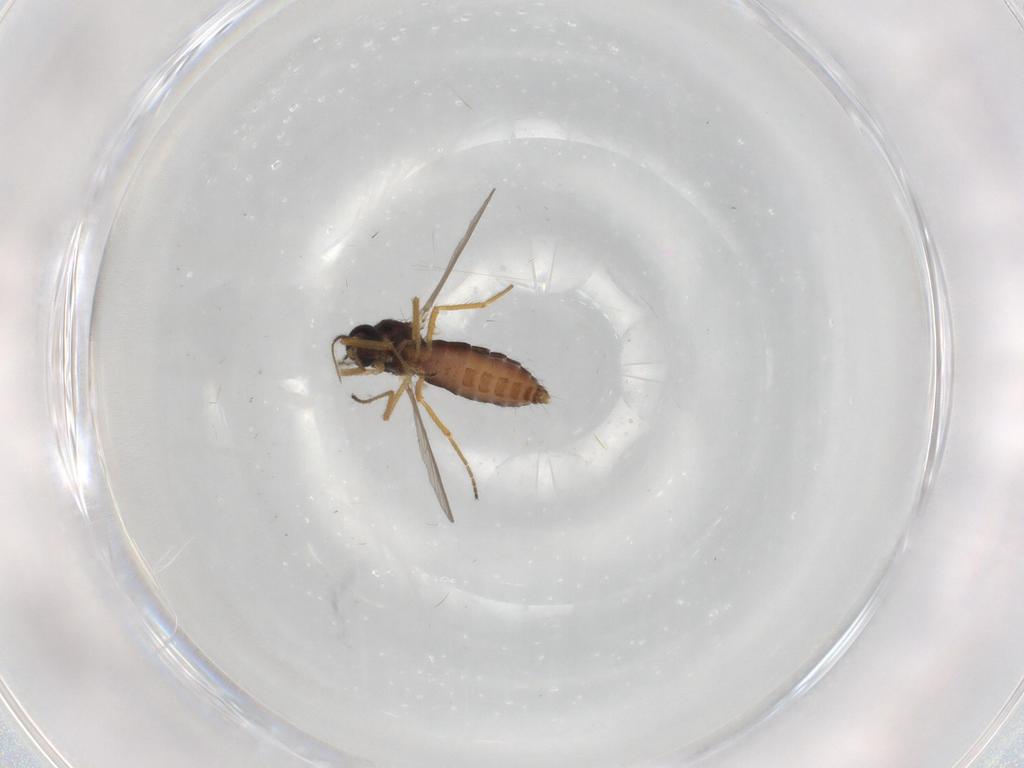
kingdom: Animalia
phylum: Arthropoda
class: Insecta
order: Diptera
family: Ceratopogonidae
